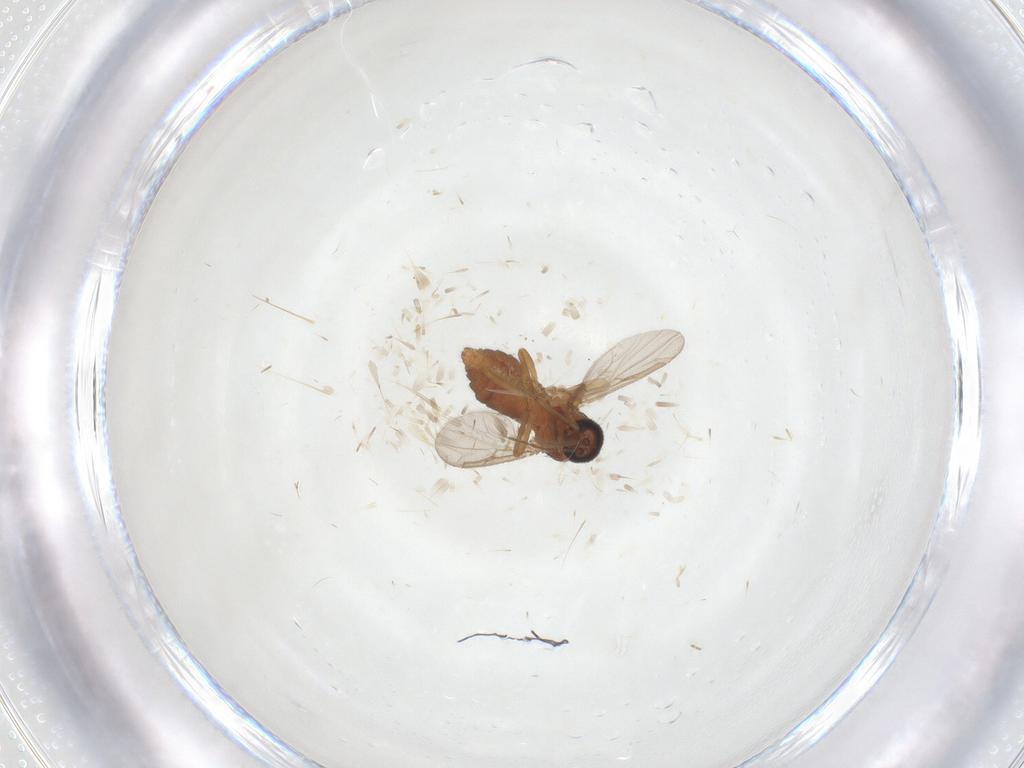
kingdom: Animalia
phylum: Arthropoda
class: Insecta
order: Diptera
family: Ceratopogonidae
